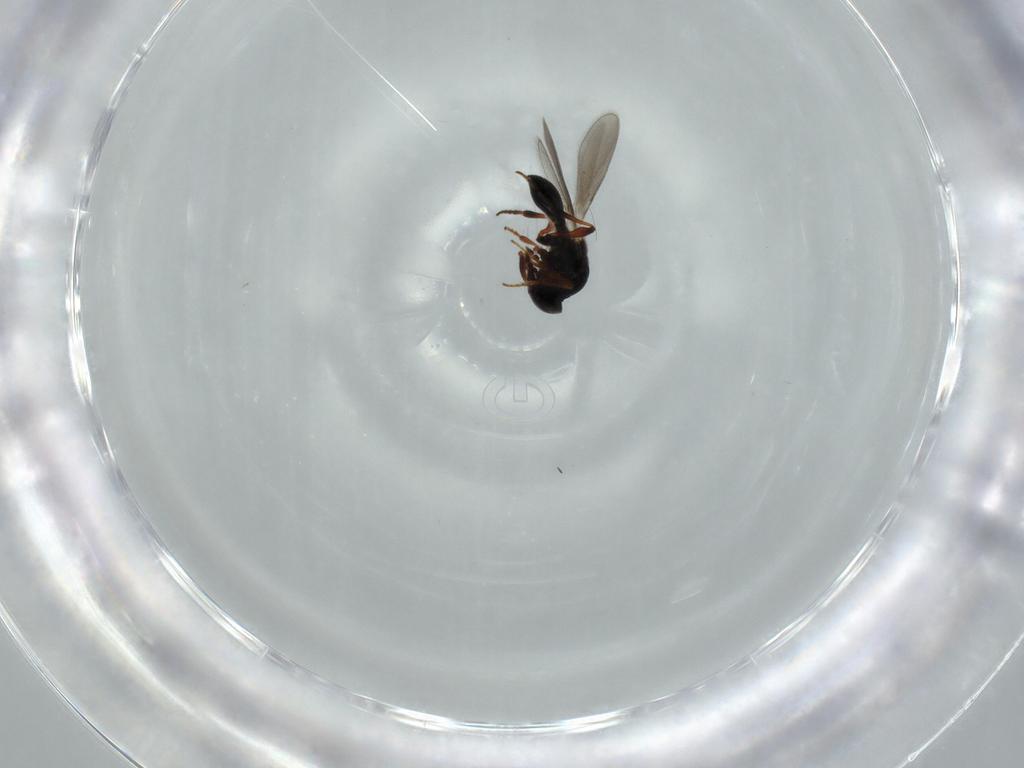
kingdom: Animalia
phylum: Arthropoda
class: Insecta
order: Hymenoptera
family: Platygastridae
